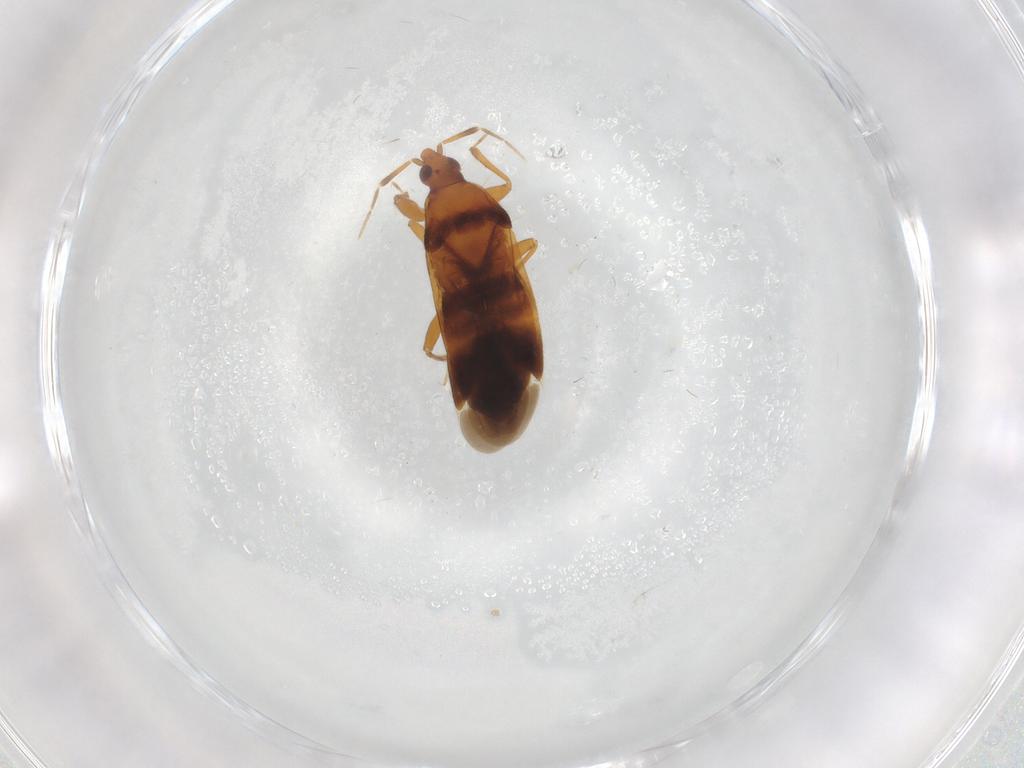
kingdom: Animalia
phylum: Arthropoda
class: Insecta
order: Hemiptera
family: Anthocoridae
